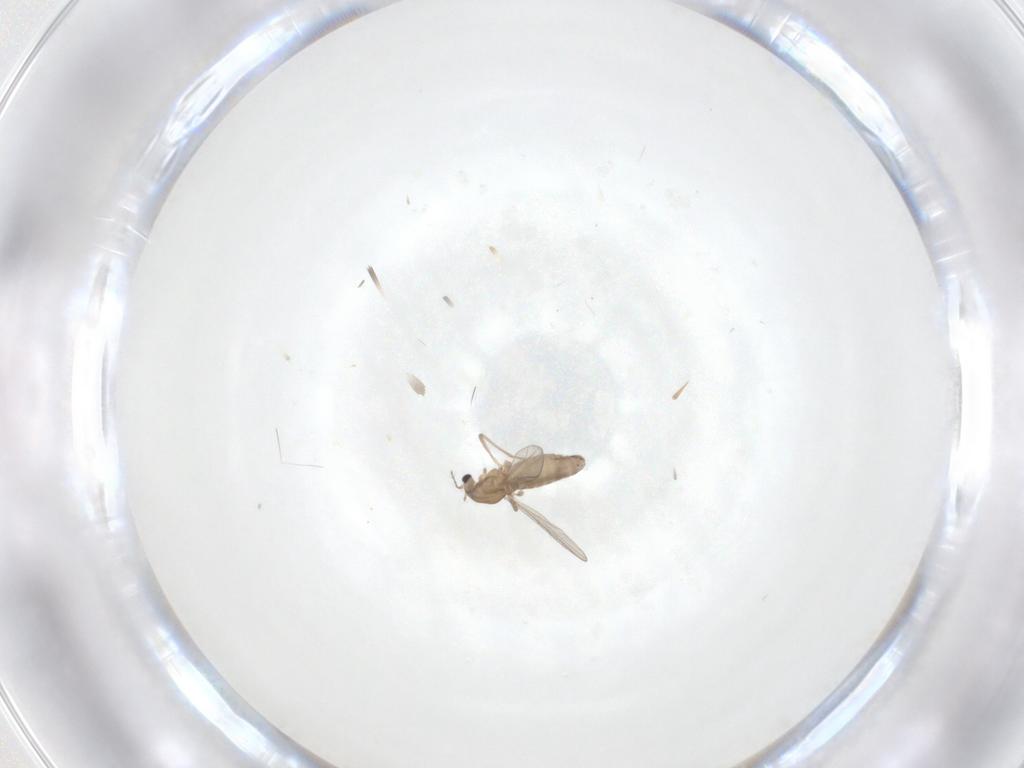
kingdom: Animalia
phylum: Arthropoda
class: Insecta
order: Diptera
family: Chironomidae
